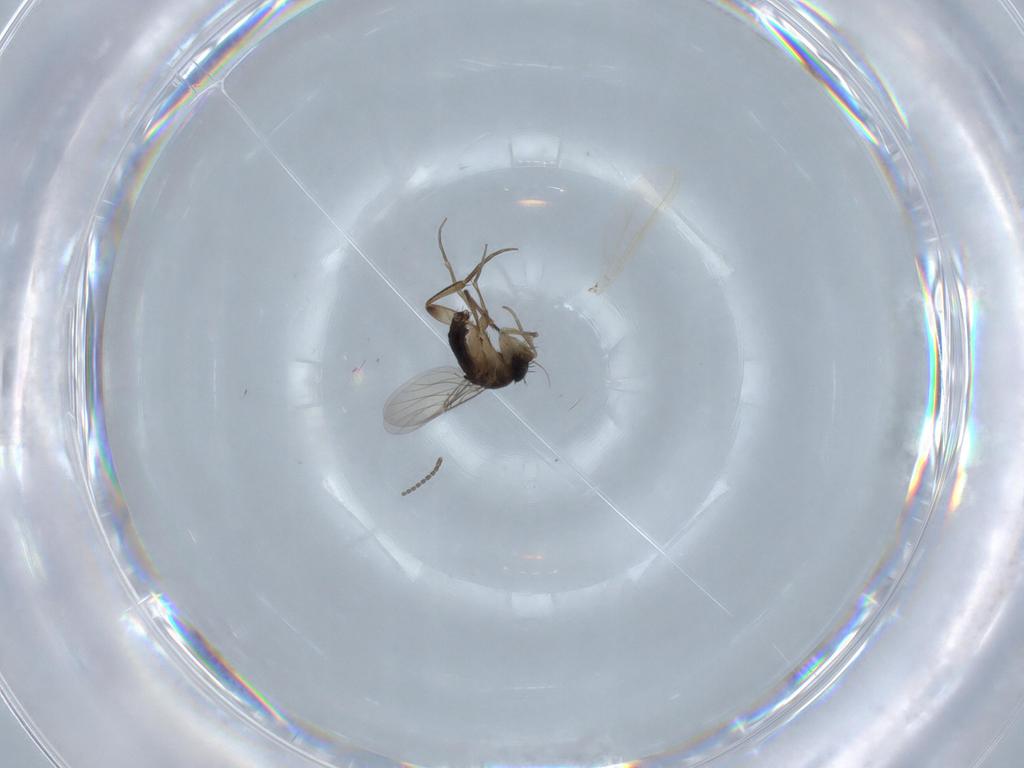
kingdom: Animalia
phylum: Arthropoda
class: Insecta
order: Diptera
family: Phoridae
